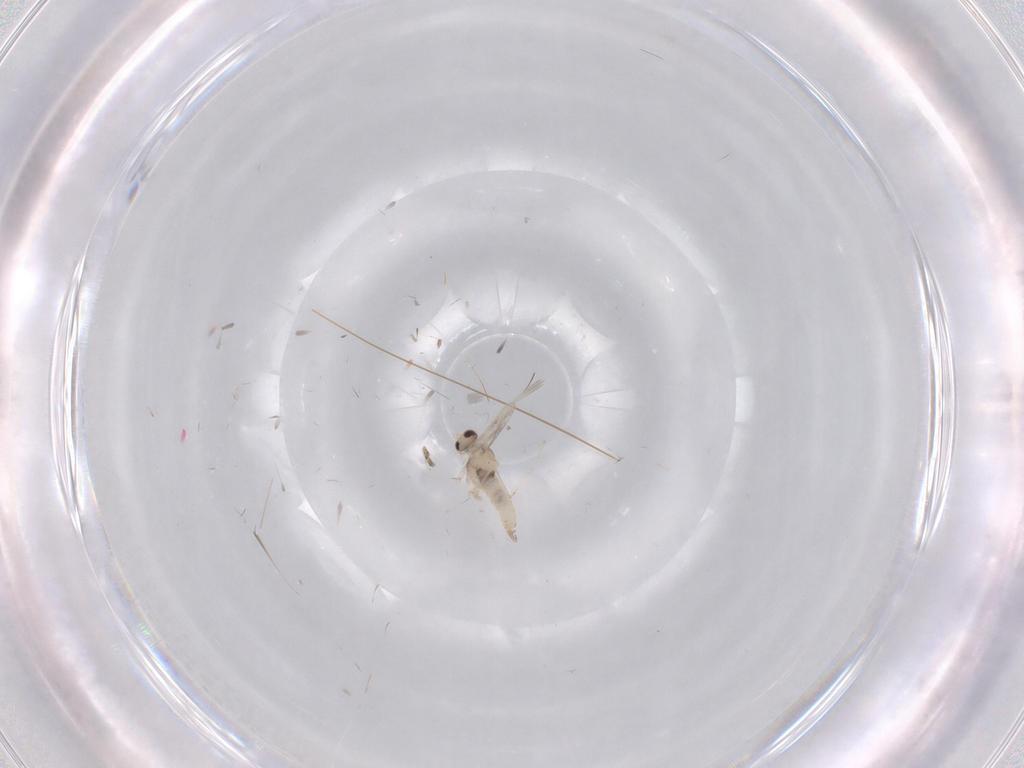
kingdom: Animalia
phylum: Arthropoda
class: Insecta
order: Diptera
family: Cecidomyiidae
